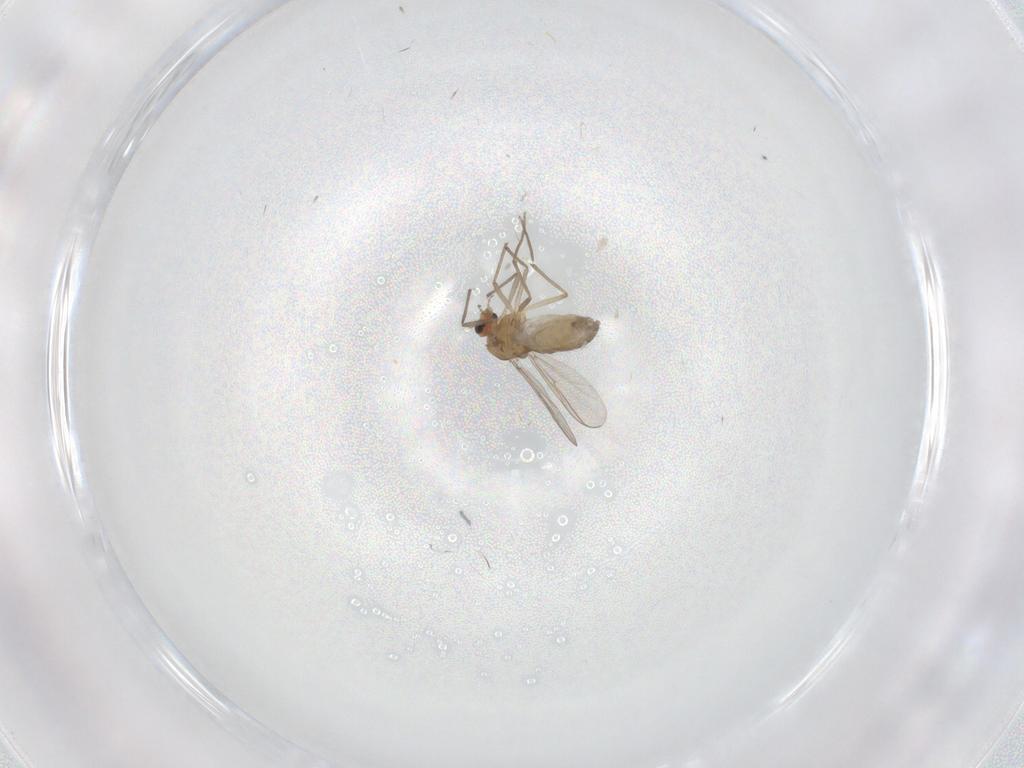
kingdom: Animalia
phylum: Arthropoda
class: Insecta
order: Diptera
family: Chironomidae
